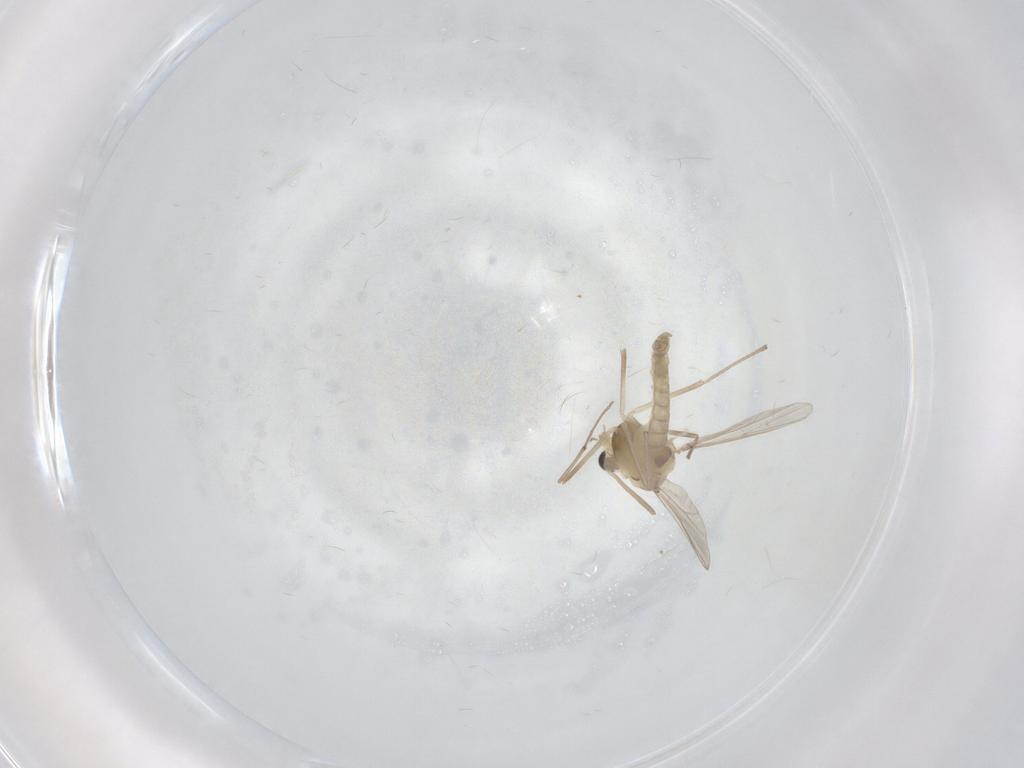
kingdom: Animalia
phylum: Arthropoda
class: Insecta
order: Diptera
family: Chironomidae
